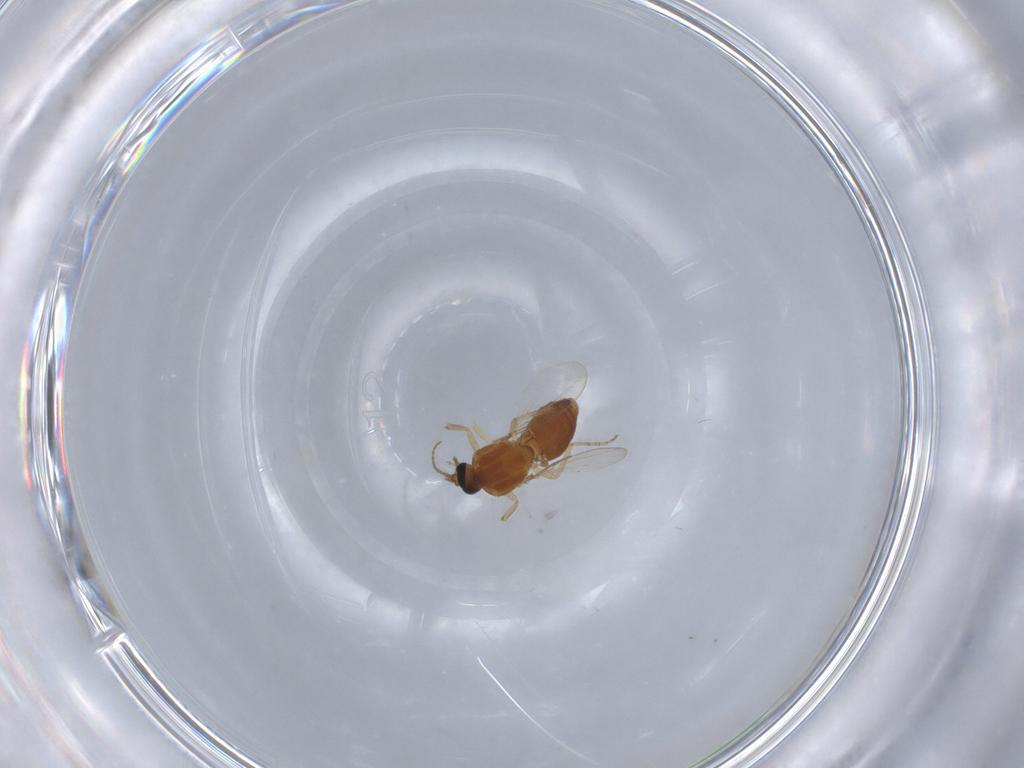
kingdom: Animalia
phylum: Arthropoda
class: Insecta
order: Diptera
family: Ceratopogonidae
